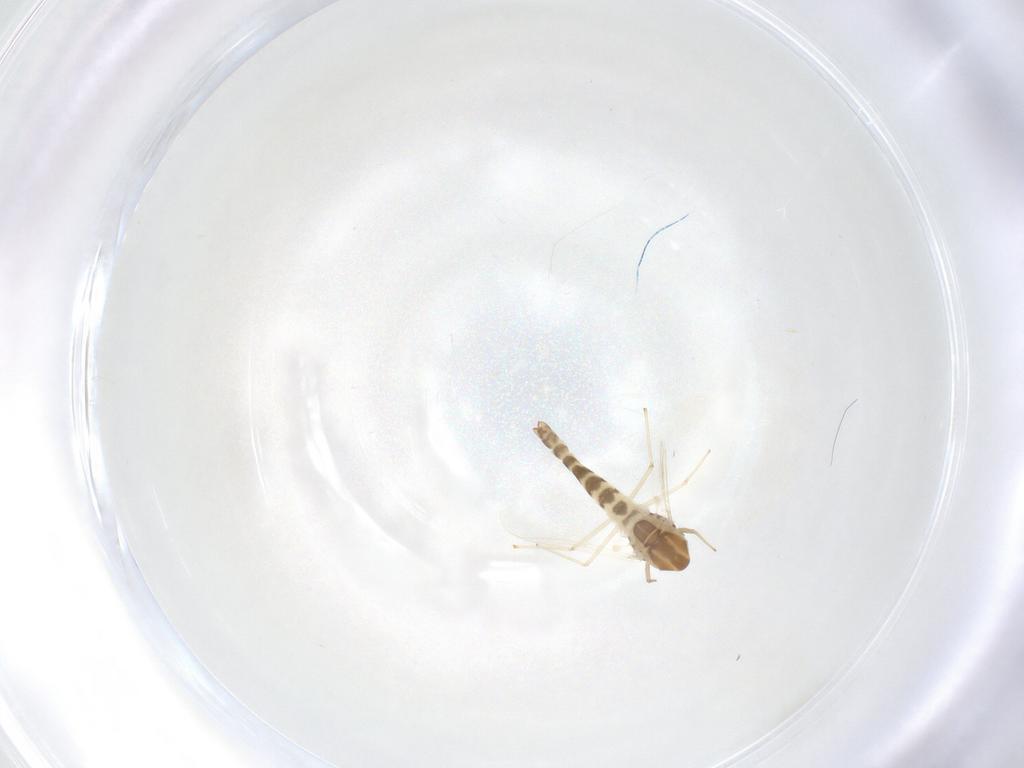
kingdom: Animalia
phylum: Arthropoda
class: Insecta
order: Diptera
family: Chironomidae
